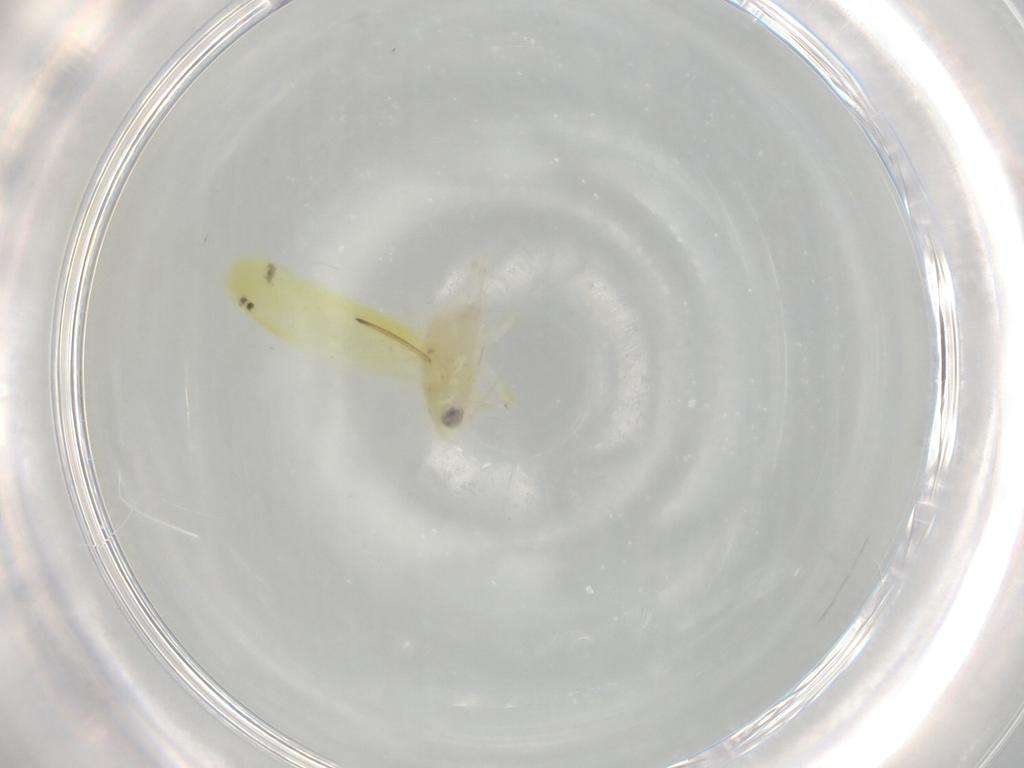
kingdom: Animalia
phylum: Arthropoda
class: Insecta
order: Hemiptera
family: Cicadellidae
